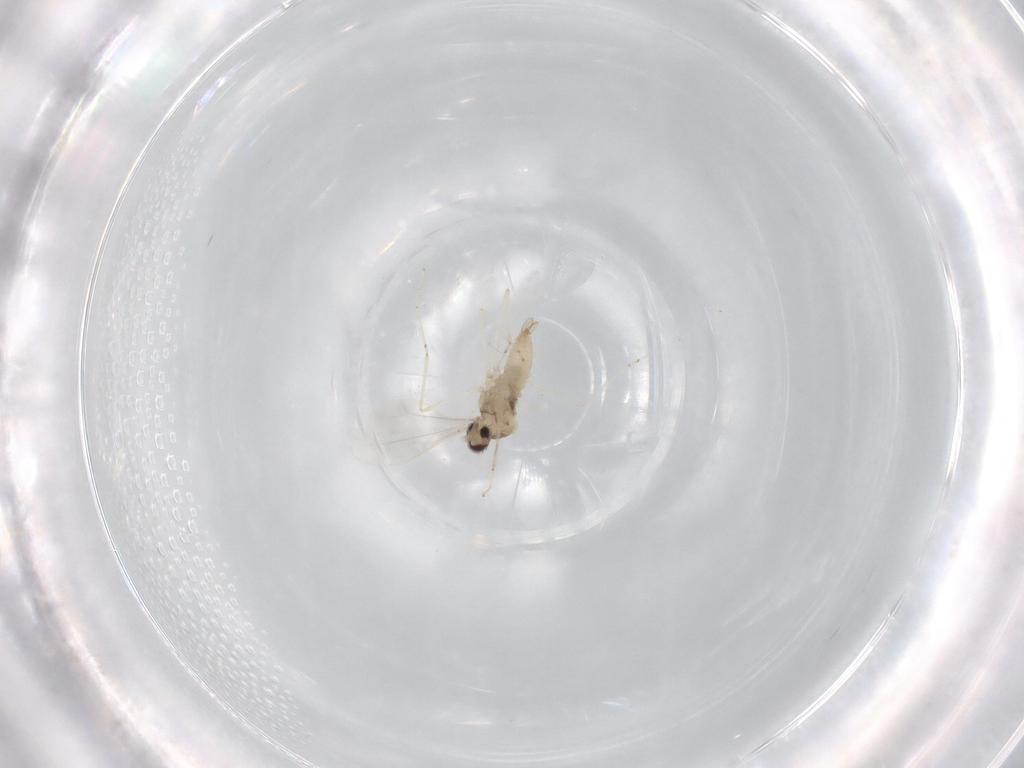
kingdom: Animalia
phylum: Arthropoda
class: Insecta
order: Diptera
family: Cecidomyiidae
